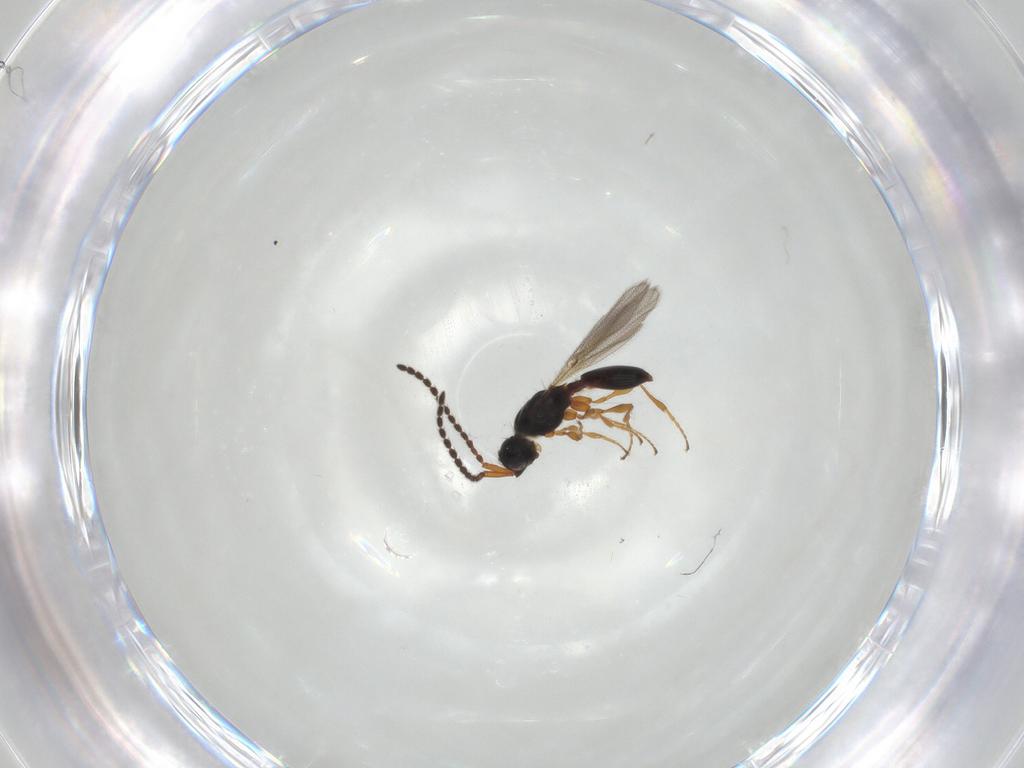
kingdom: Animalia
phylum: Arthropoda
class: Insecta
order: Hymenoptera
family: Diapriidae
